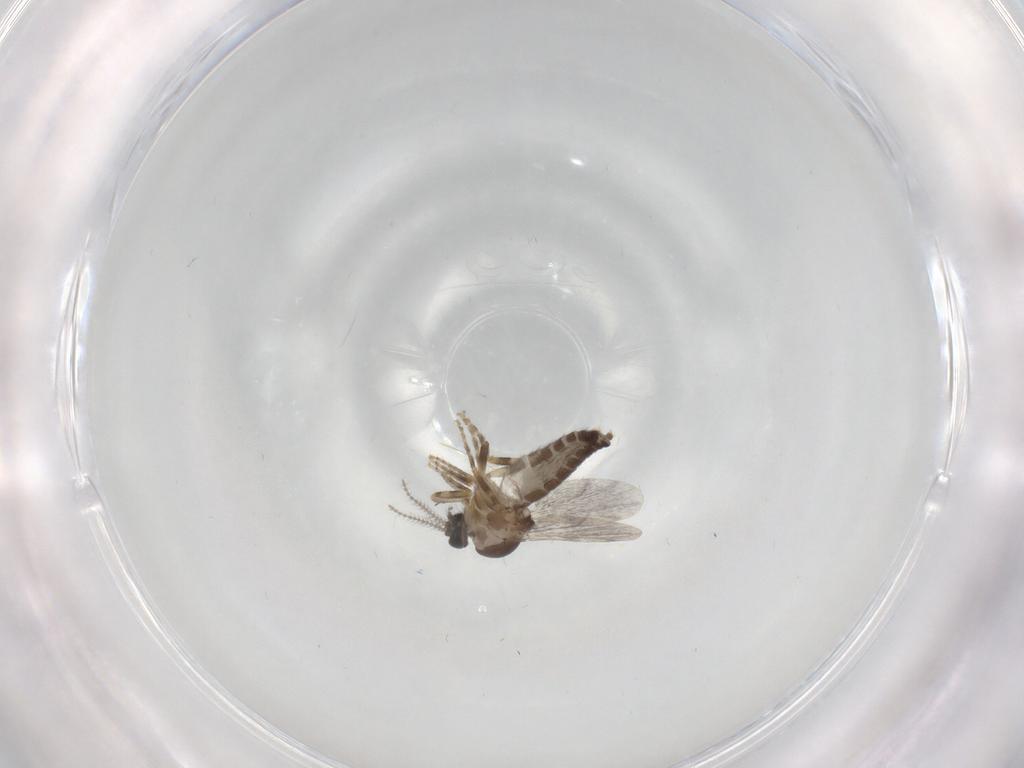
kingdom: Animalia
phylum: Arthropoda
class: Insecta
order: Diptera
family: Ceratopogonidae
